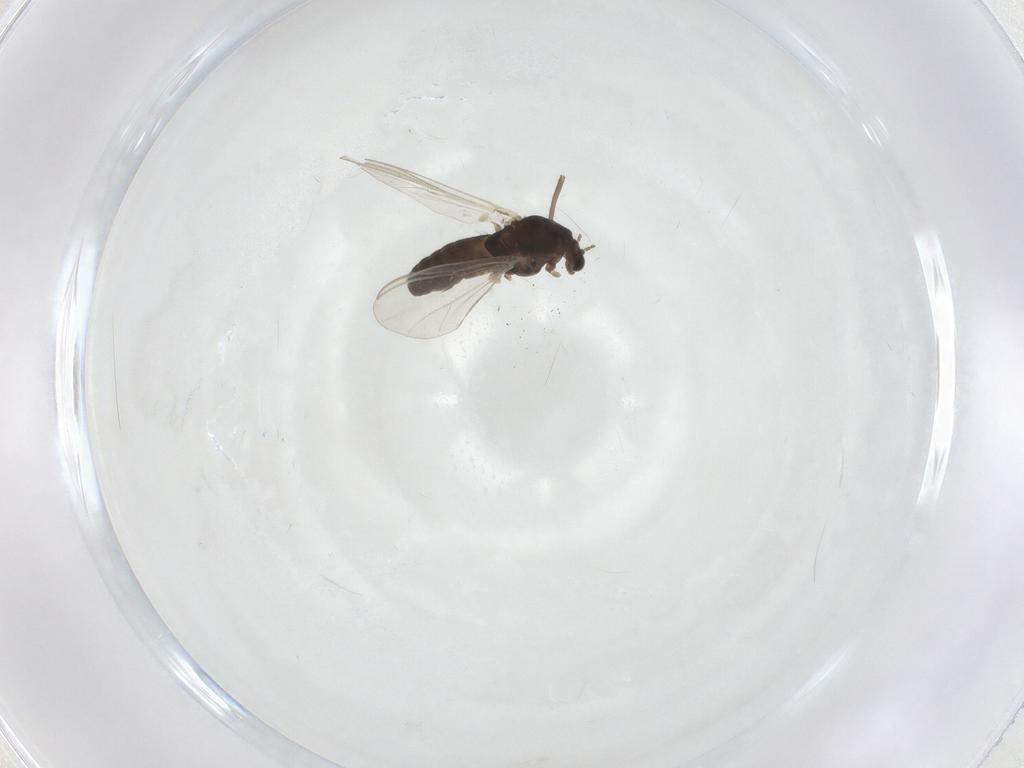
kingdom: Animalia
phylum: Arthropoda
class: Insecta
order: Diptera
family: Chironomidae
